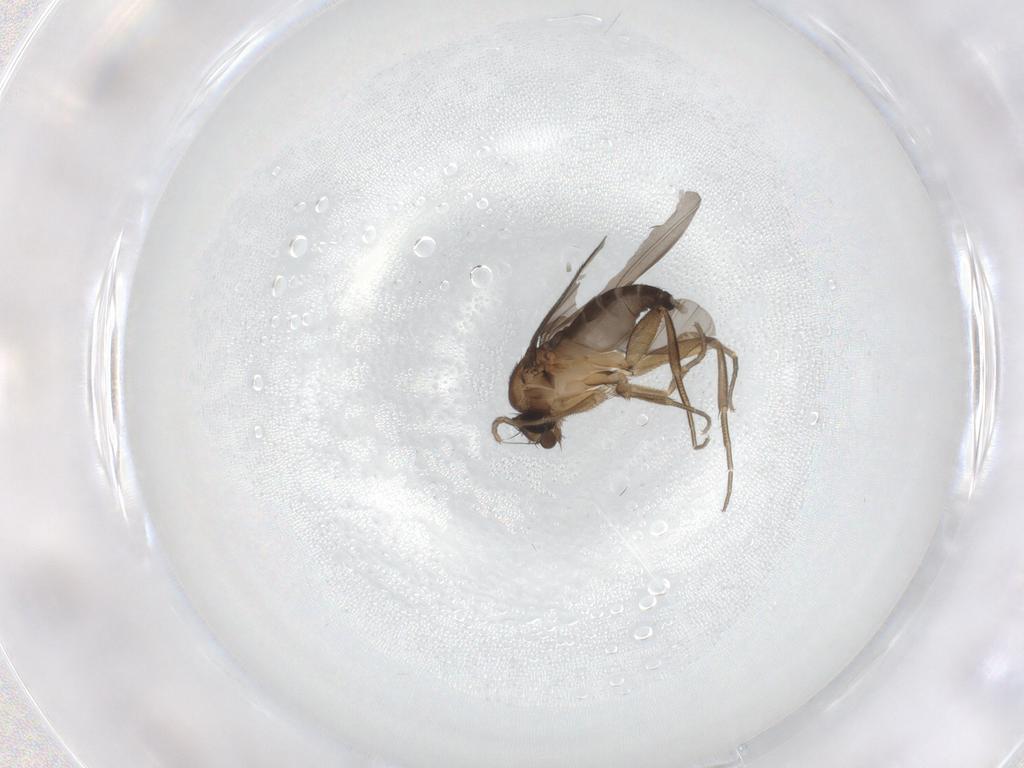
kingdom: Animalia
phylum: Arthropoda
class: Insecta
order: Diptera
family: Phoridae
